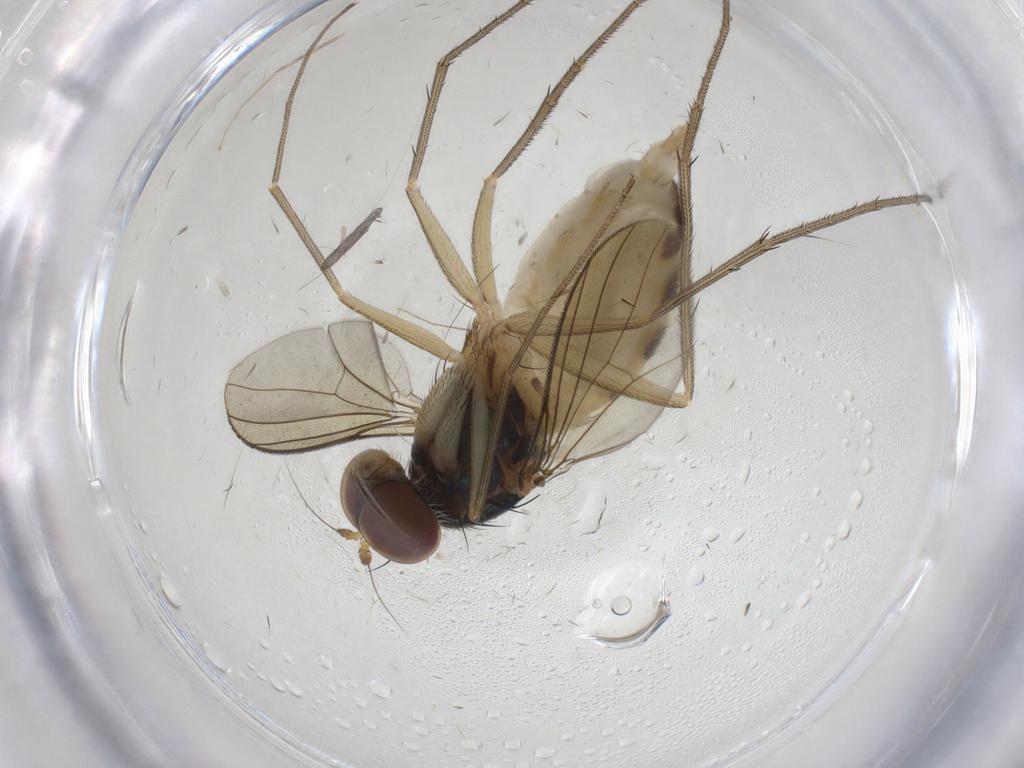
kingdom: Animalia
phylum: Arthropoda
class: Insecta
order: Diptera
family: Dolichopodidae
